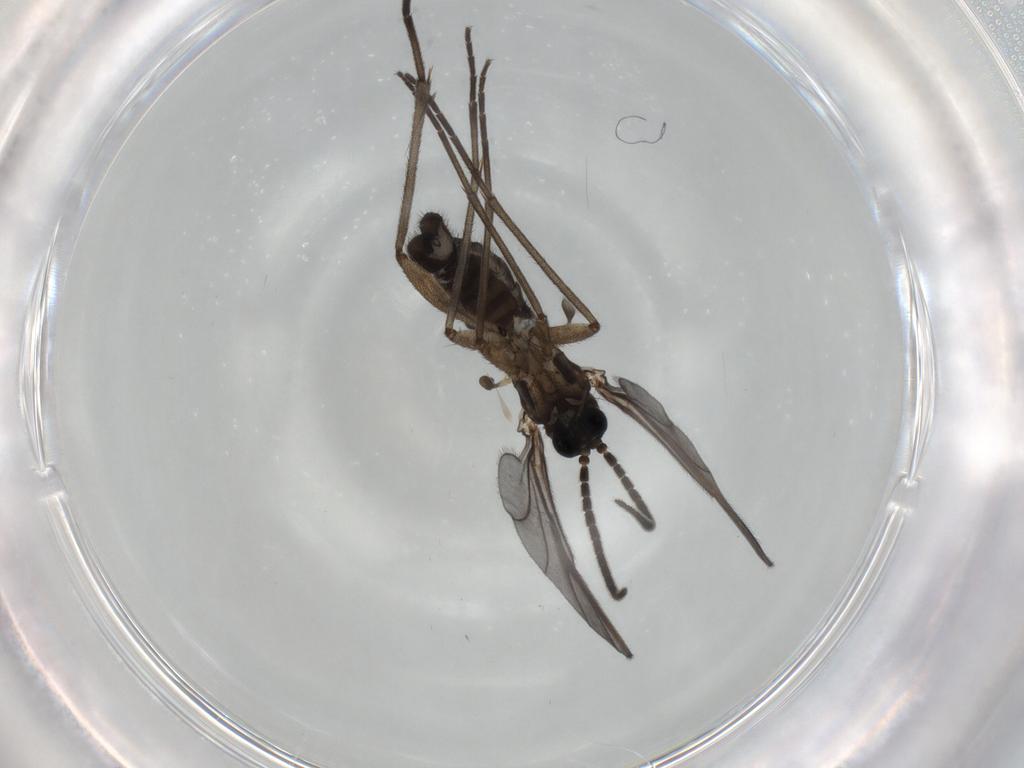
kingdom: Animalia
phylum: Arthropoda
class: Insecta
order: Diptera
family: Sciaridae
